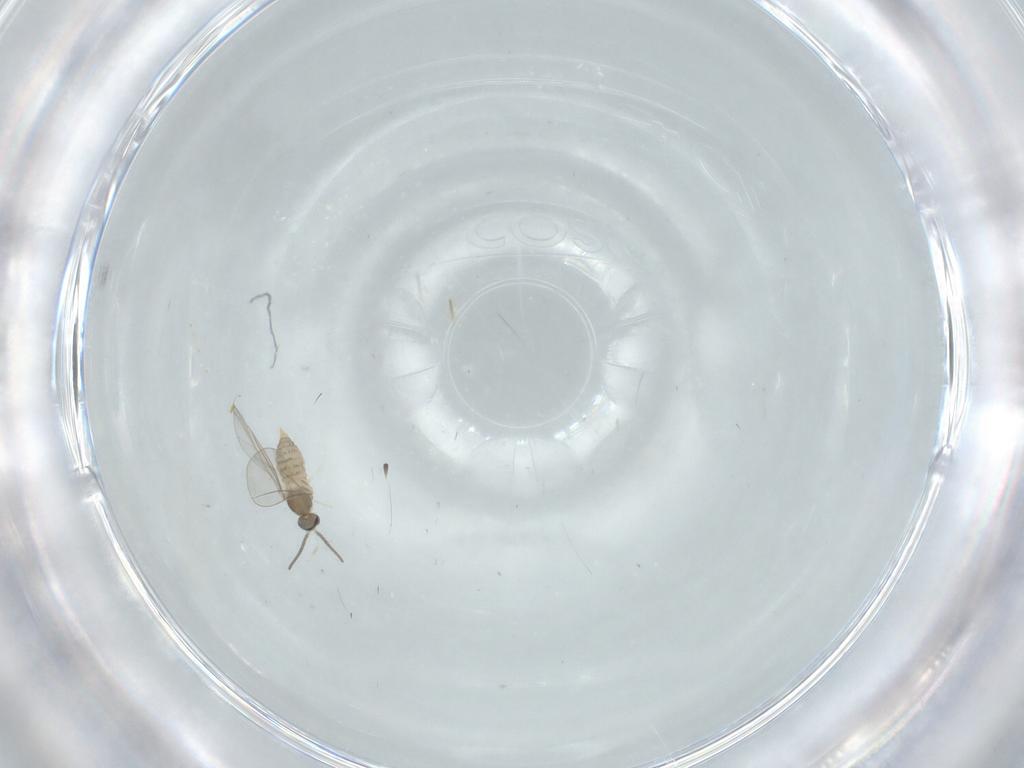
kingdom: Animalia
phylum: Arthropoda
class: Insecta
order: Diptera
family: Cecidomyiidae
